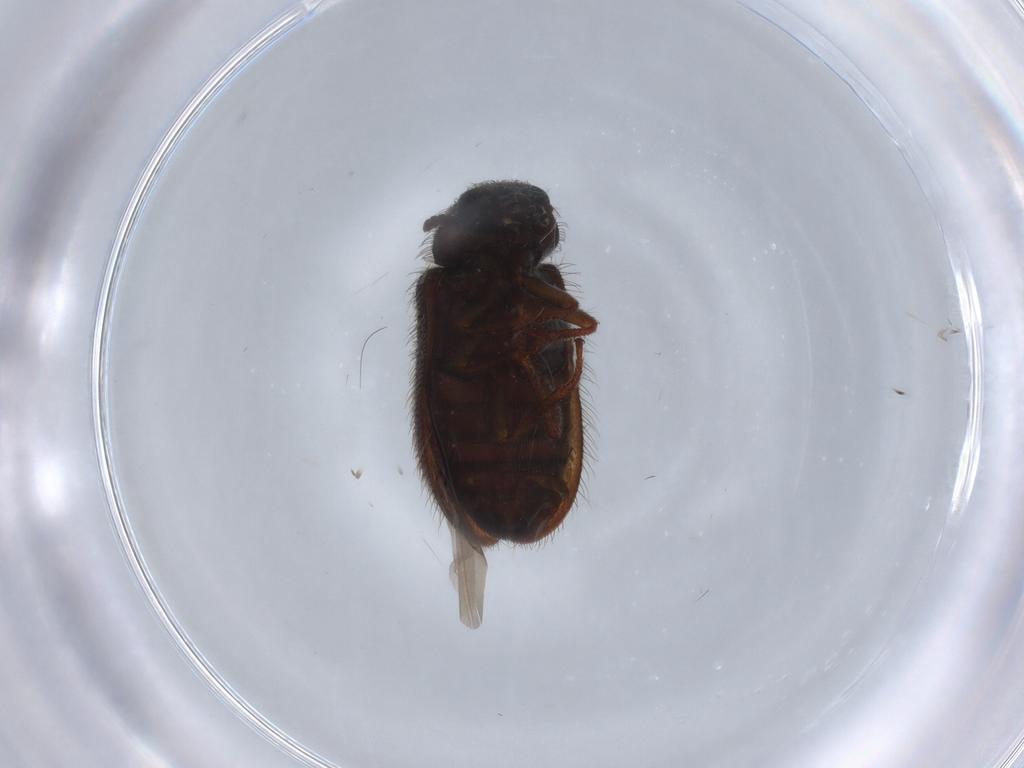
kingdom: Animalia
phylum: Arthropoda
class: Insecta
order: Coleoptera
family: Melyridae
